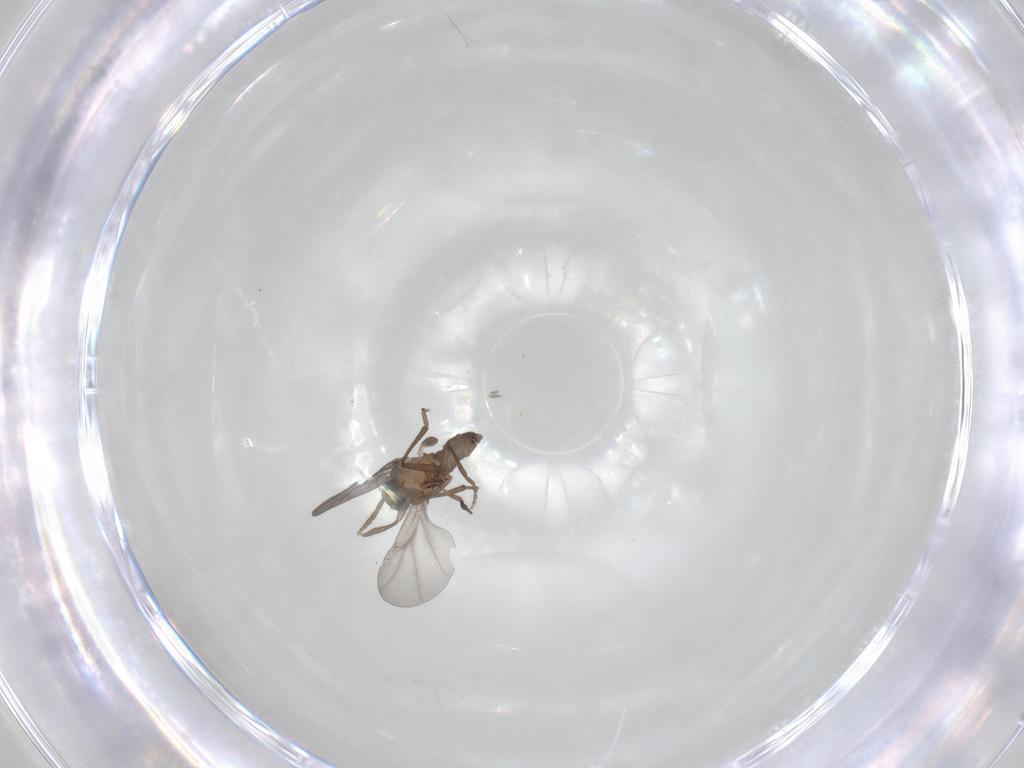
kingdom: Animalia
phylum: Arthropoda
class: Insecta
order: Diptera
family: Phoridae
